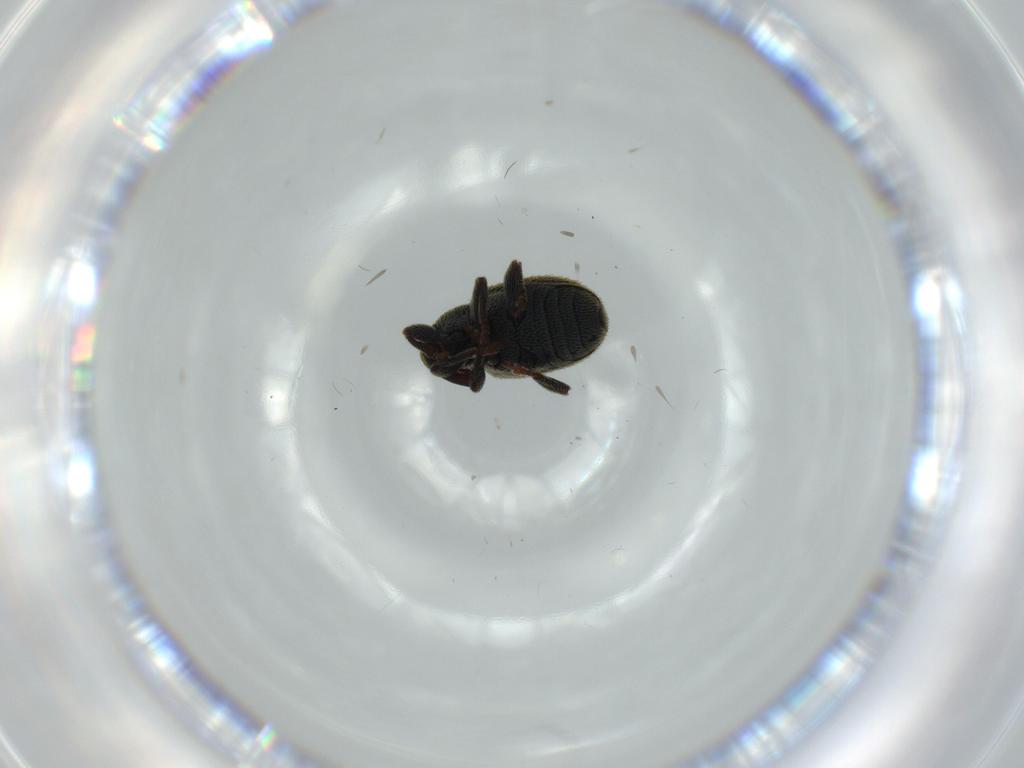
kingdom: Animalia
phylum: Arthropoda
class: Insecta
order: Coleoptera
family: Curculionidae
